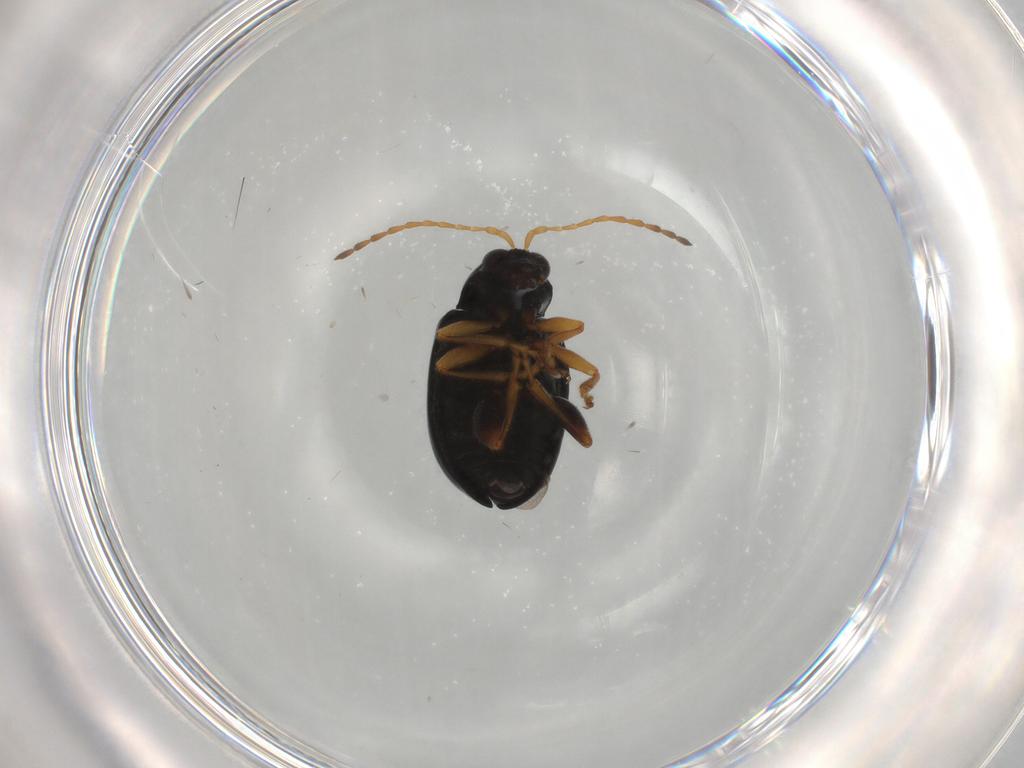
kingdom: Animalia
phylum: Arthropoda
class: Insecta
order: Coleoptera
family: Chrysomelidae
